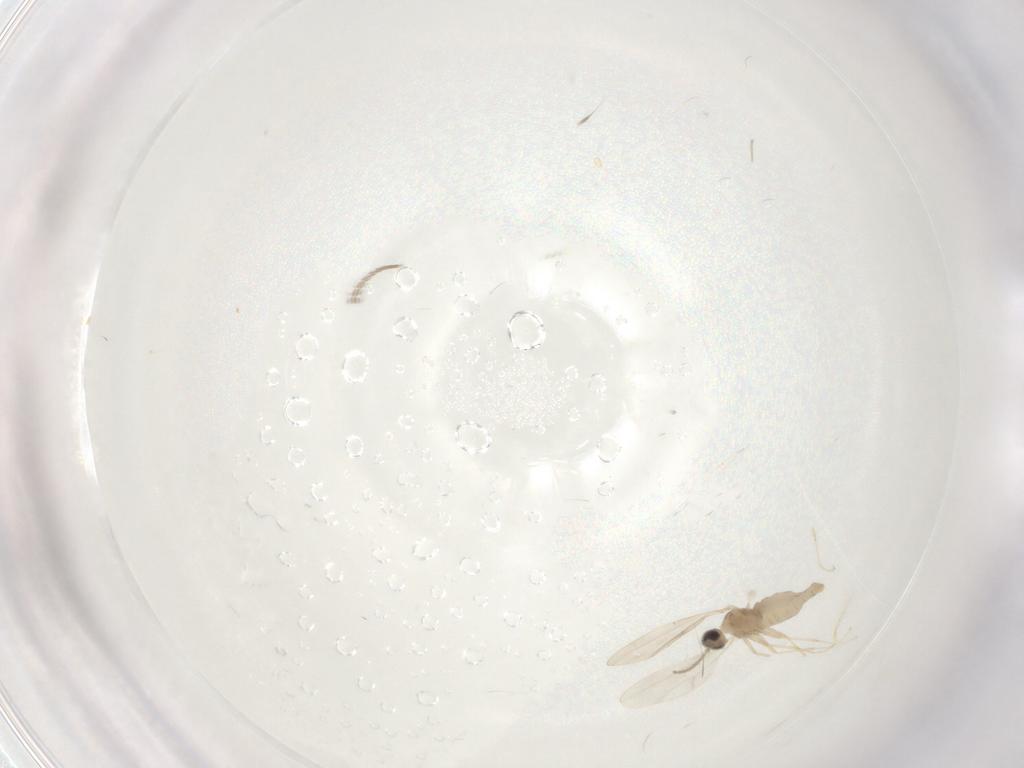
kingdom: Animalia
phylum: Arthropoda
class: Insecta
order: Diptera
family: Cecidomyiidae
